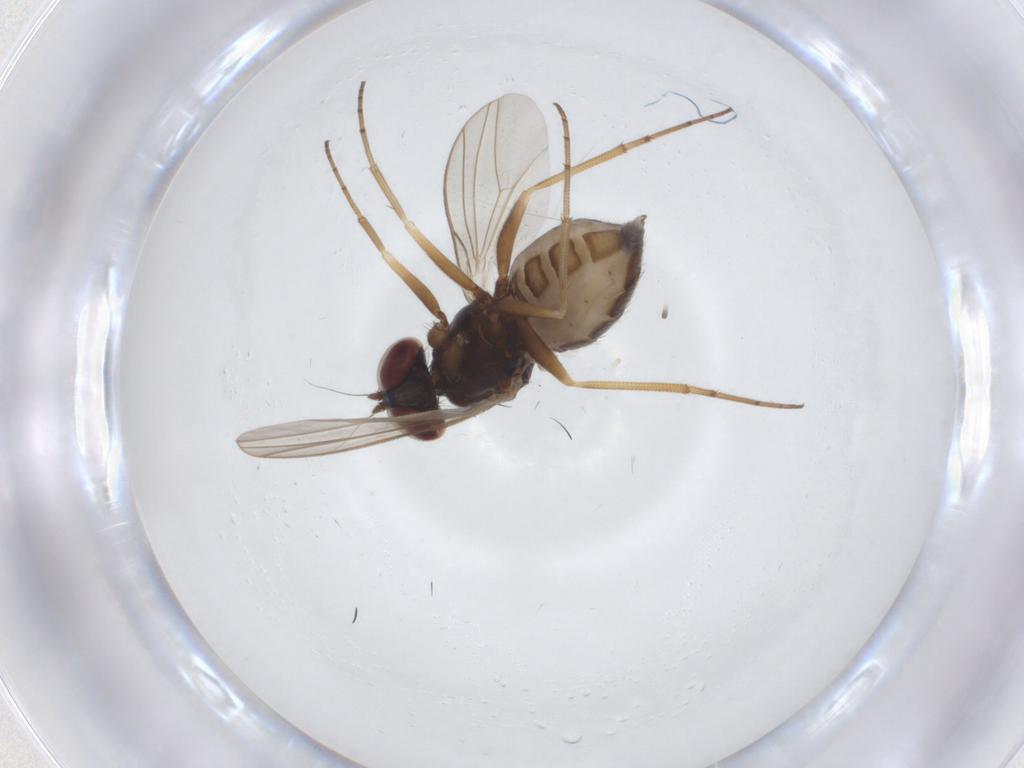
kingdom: Animalia
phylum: Arthropoda
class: Insecta
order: Diptera
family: Dolichopodidae
